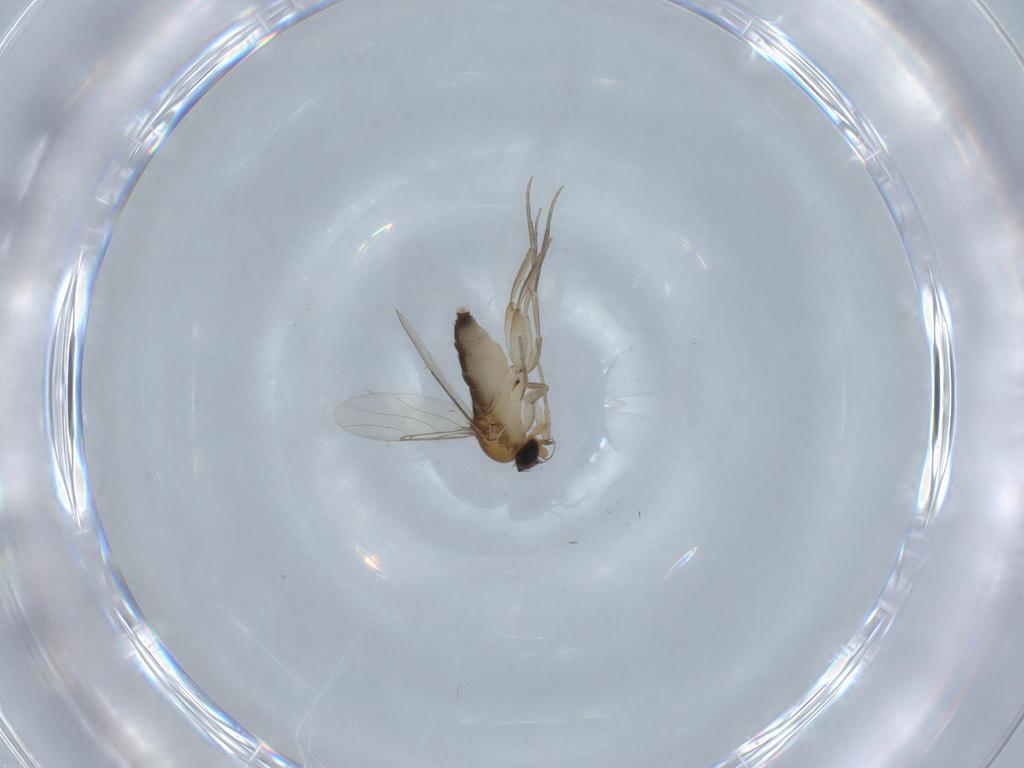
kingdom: Animalia
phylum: Arthropoda
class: Insecta
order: Diptera
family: Phoridae
